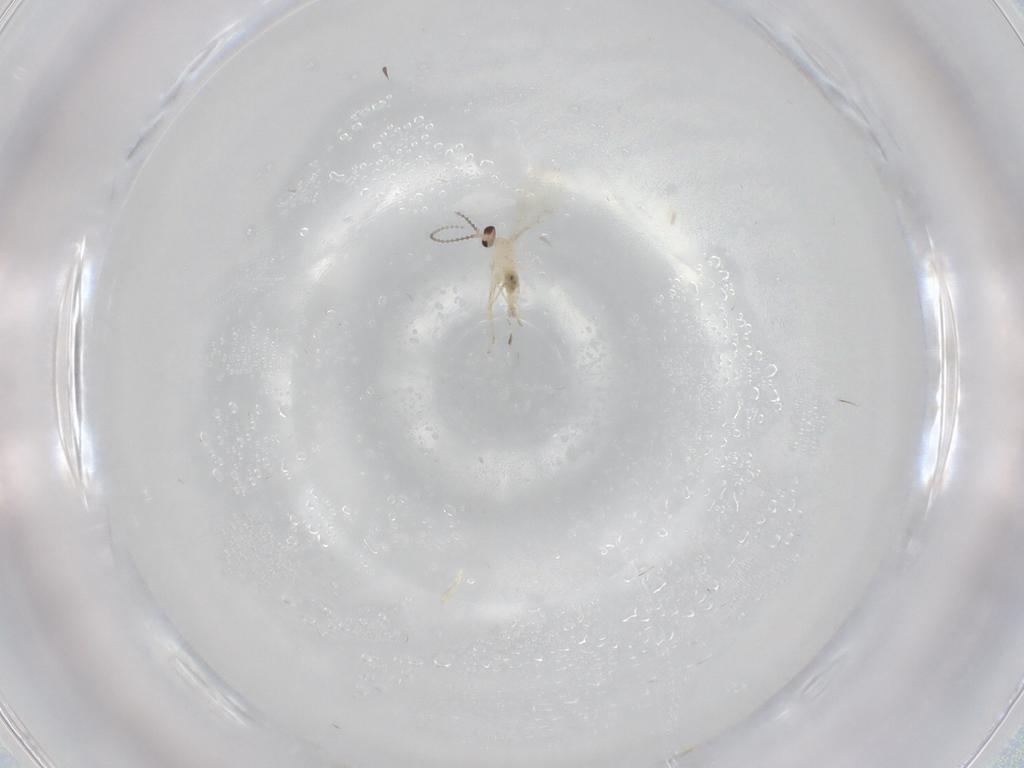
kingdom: Animalia
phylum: Arthropoda
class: Insecta
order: Diptera
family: Cecidomyiidae
